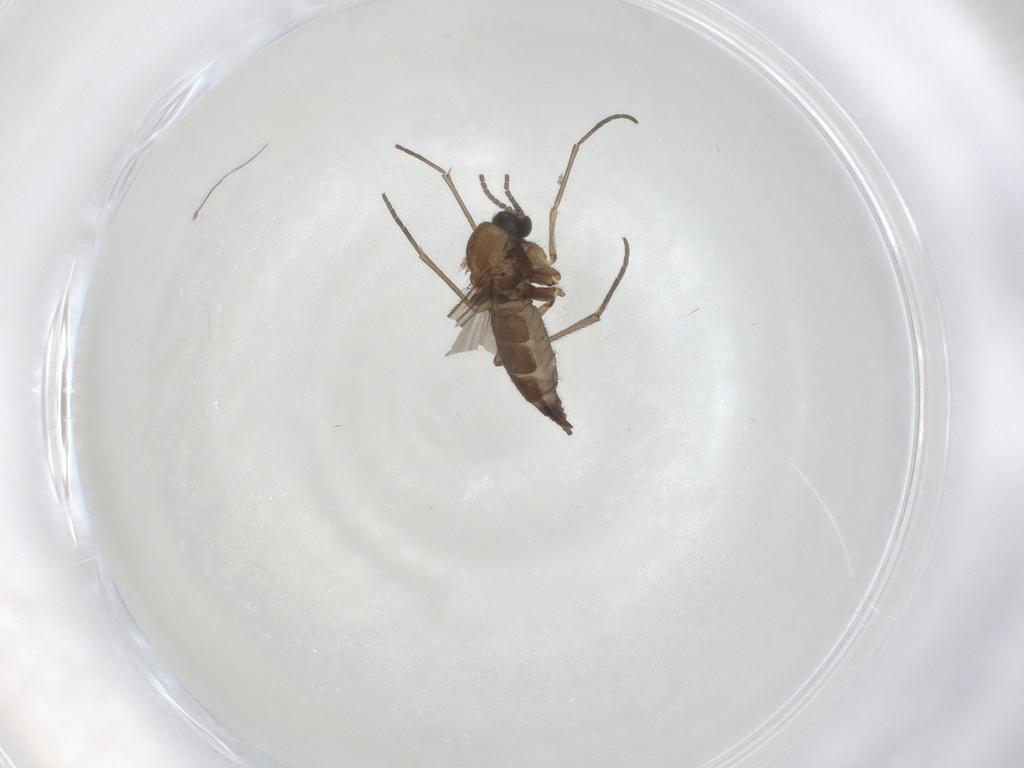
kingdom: Animalia
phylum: Arthropoda
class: Insecta
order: Diptera
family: Sciaridae
